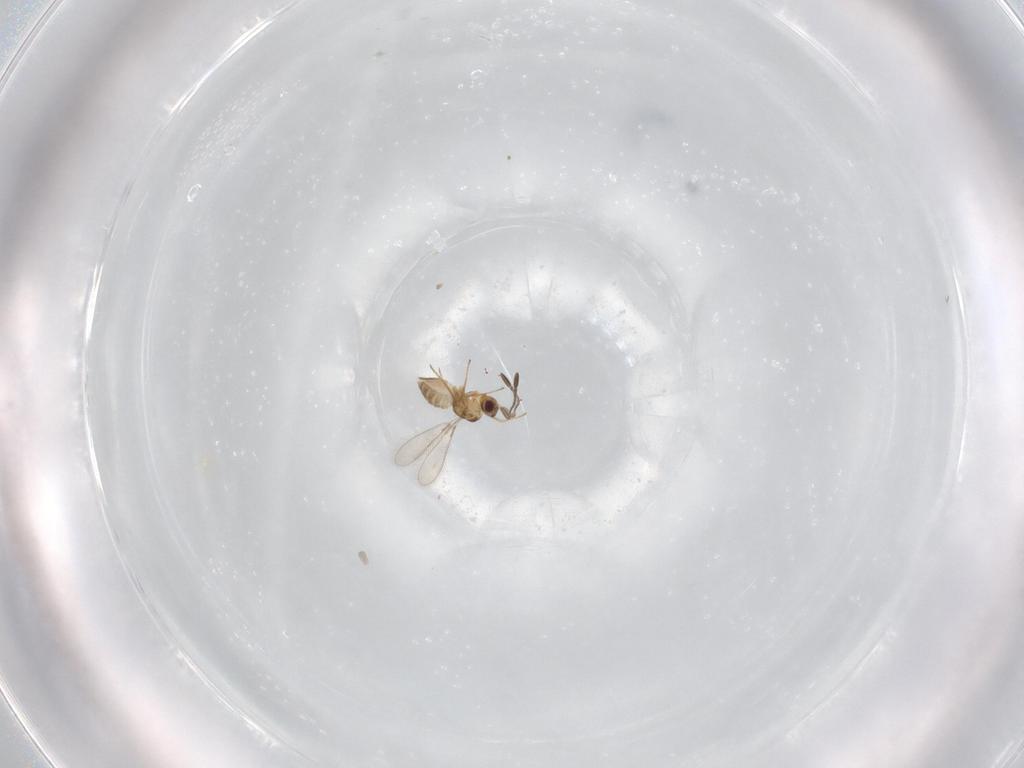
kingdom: Animalia
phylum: Arthropoda
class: Insecta
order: Hymenoptera
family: Mymaridae
